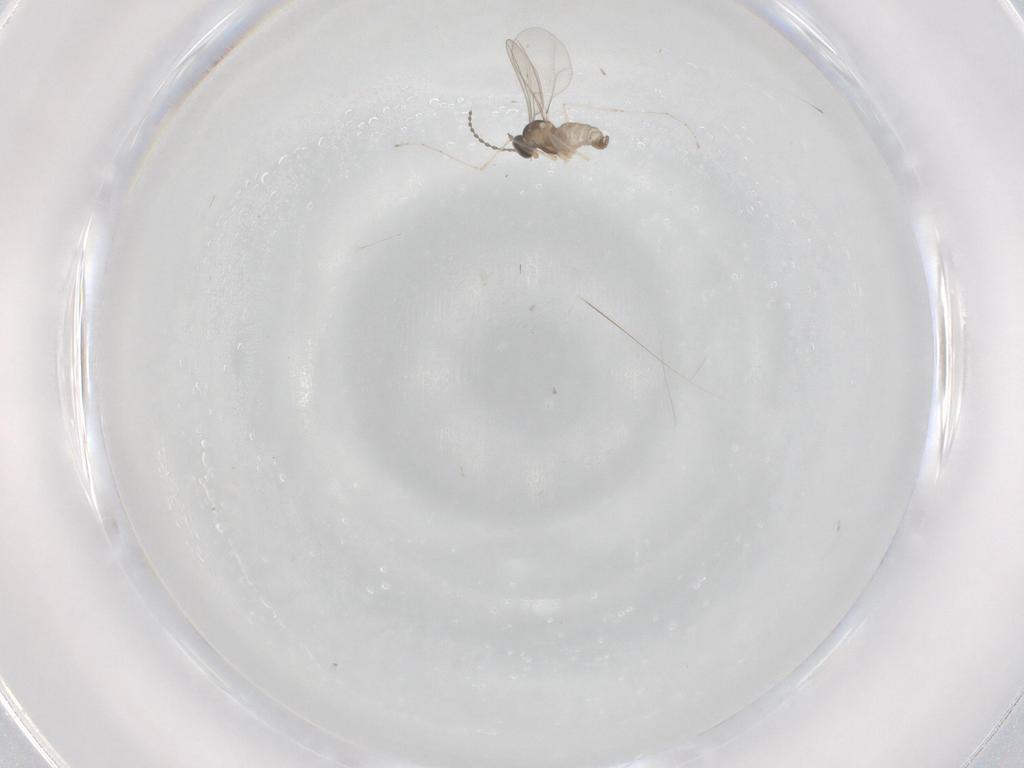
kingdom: Animalia
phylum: Arthropoda
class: Insecta
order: Diptera
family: Cecidomyiidae
